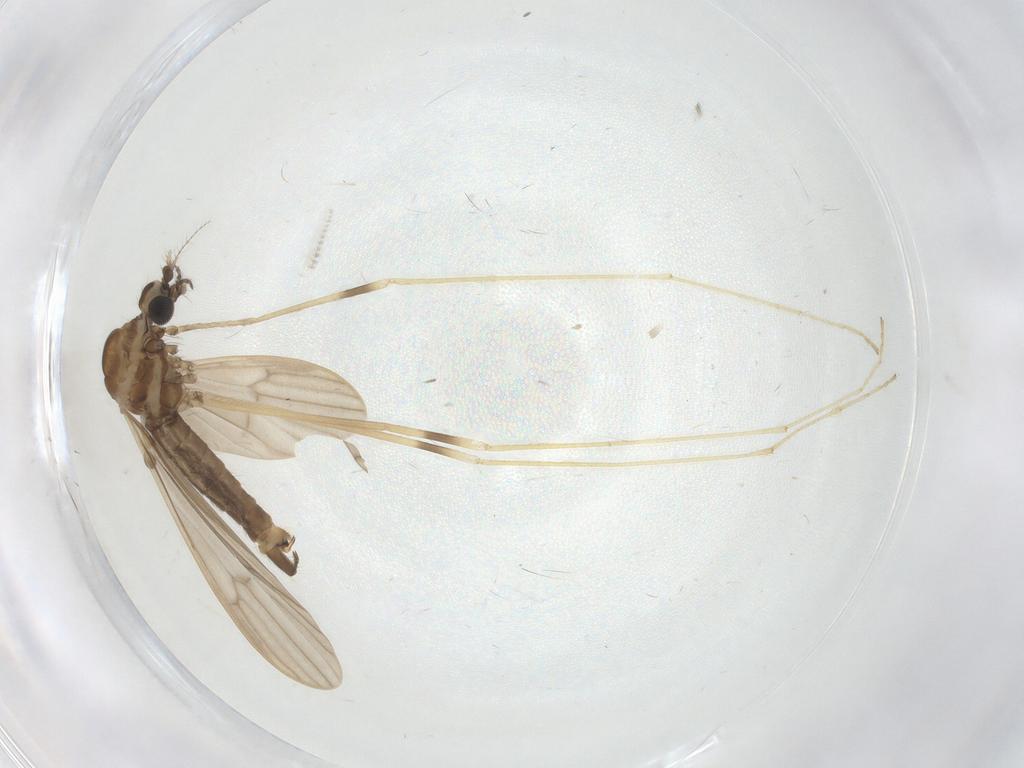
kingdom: Animalia
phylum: Arthropoda
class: Insecta
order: Diptera
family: Limoniidae
